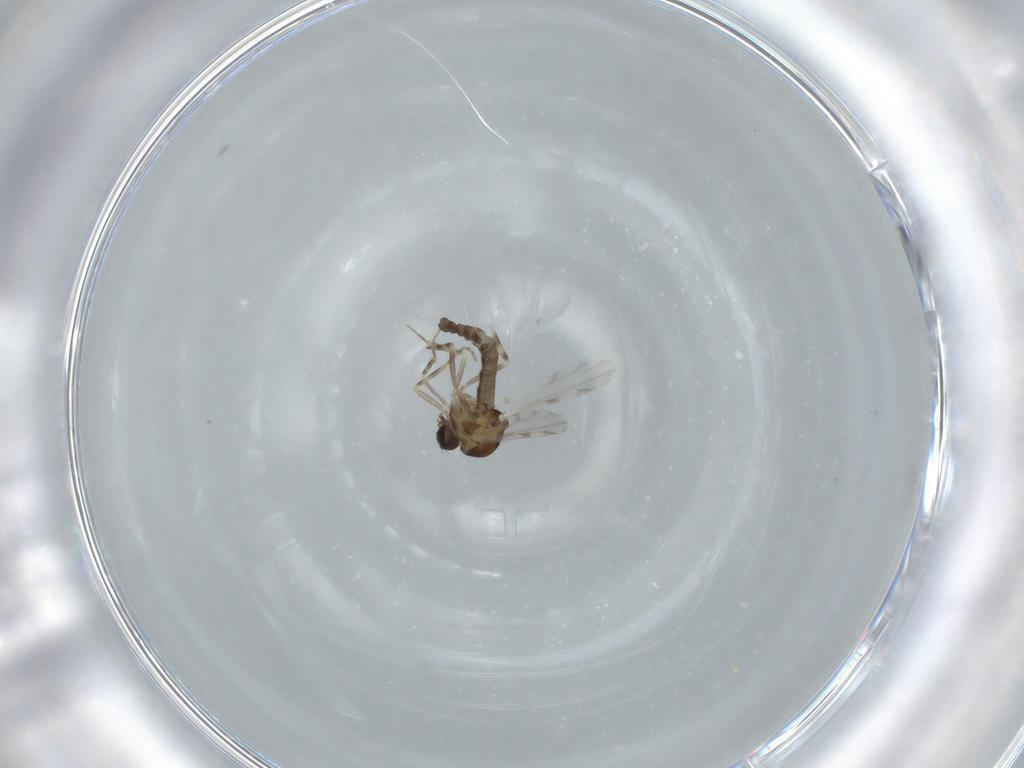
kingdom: Animalia
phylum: Arthropoda
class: Insecta
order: Diptera
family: Ceratopogonidae
